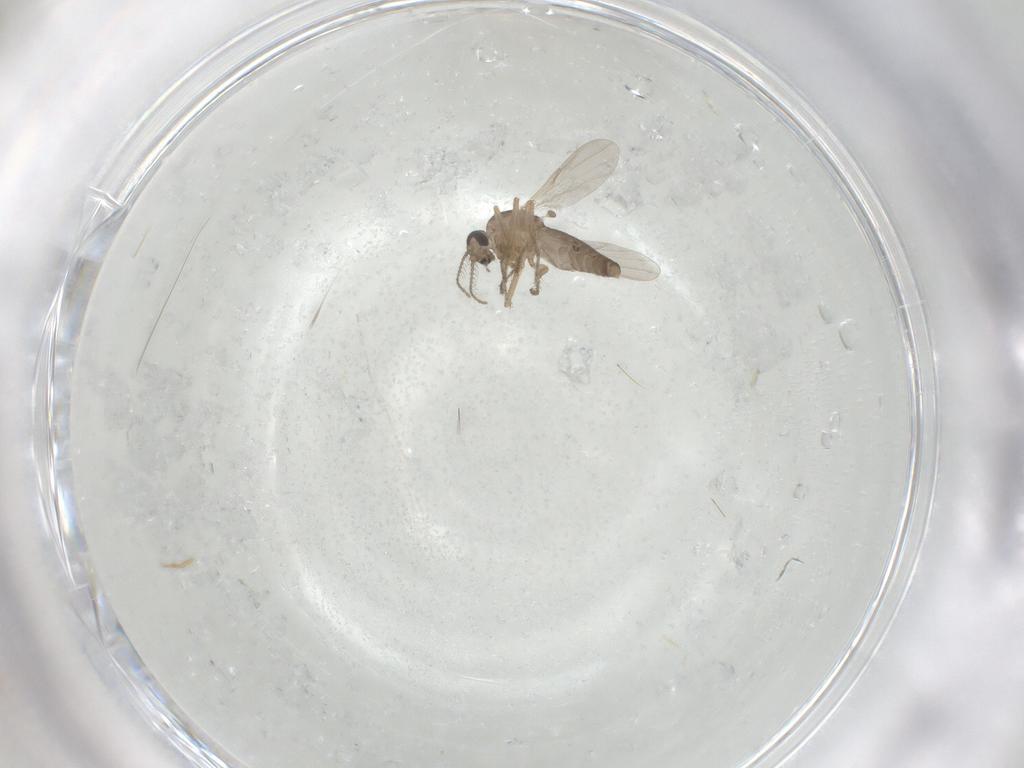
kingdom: Animalia
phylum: Arthropoda
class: Insecta
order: Diptera
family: Ceratopogonidae
